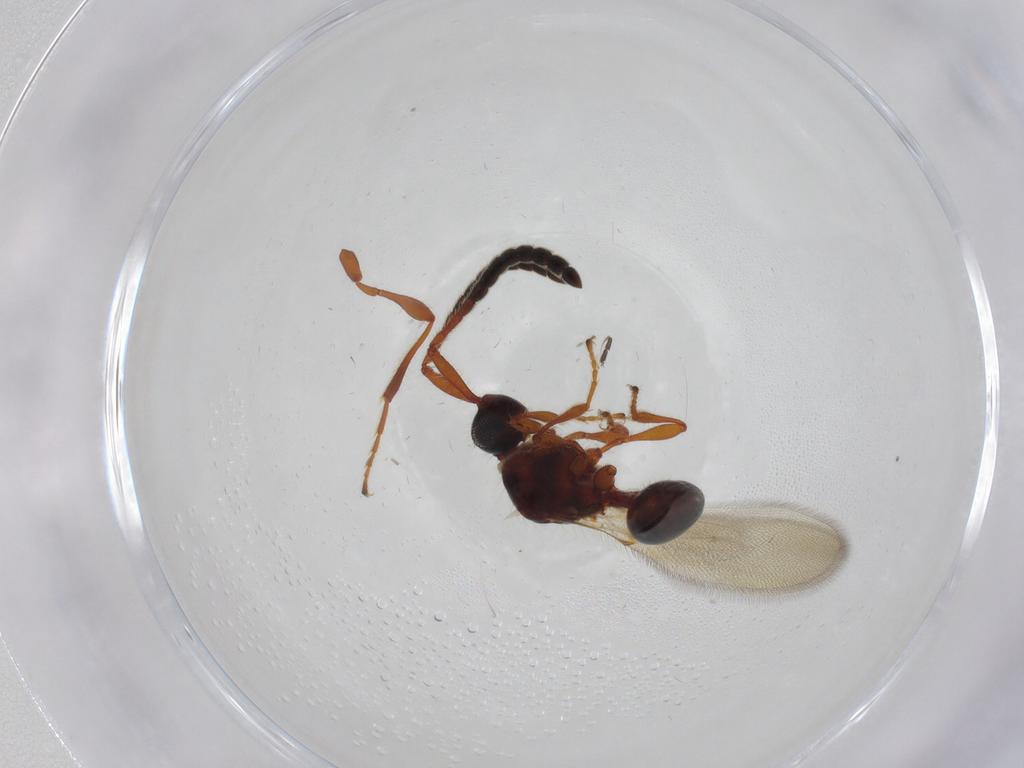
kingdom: Animalia
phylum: Arthropoda
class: Insecta
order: Hymenoptera
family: Diapriidae
